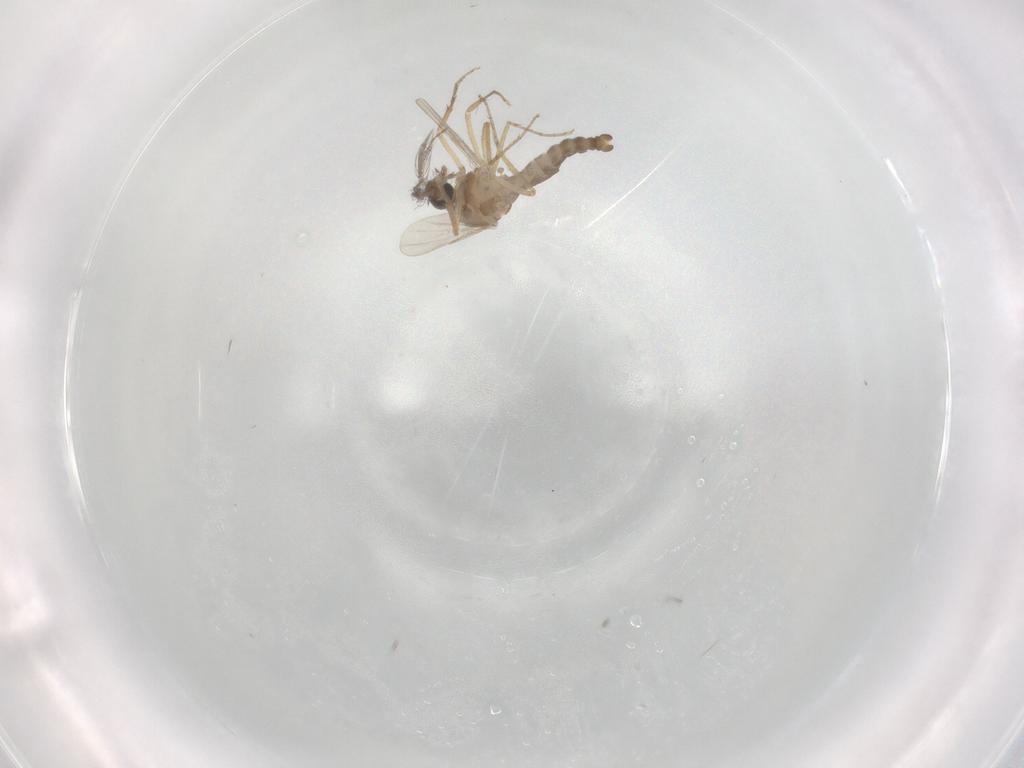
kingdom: Animalia
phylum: Arthropoda
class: Insecta
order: Diptera
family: Ceratopogonidae
